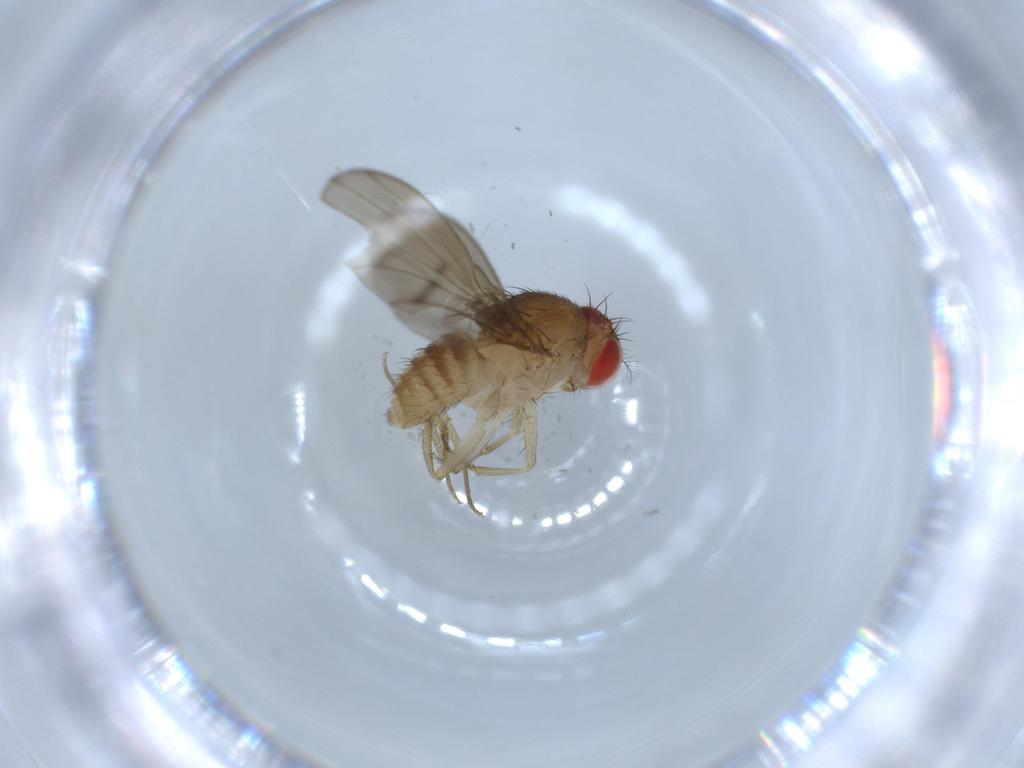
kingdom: Animalia
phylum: Arthropoda
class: Insecta
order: Diptera
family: Drosophilidae
